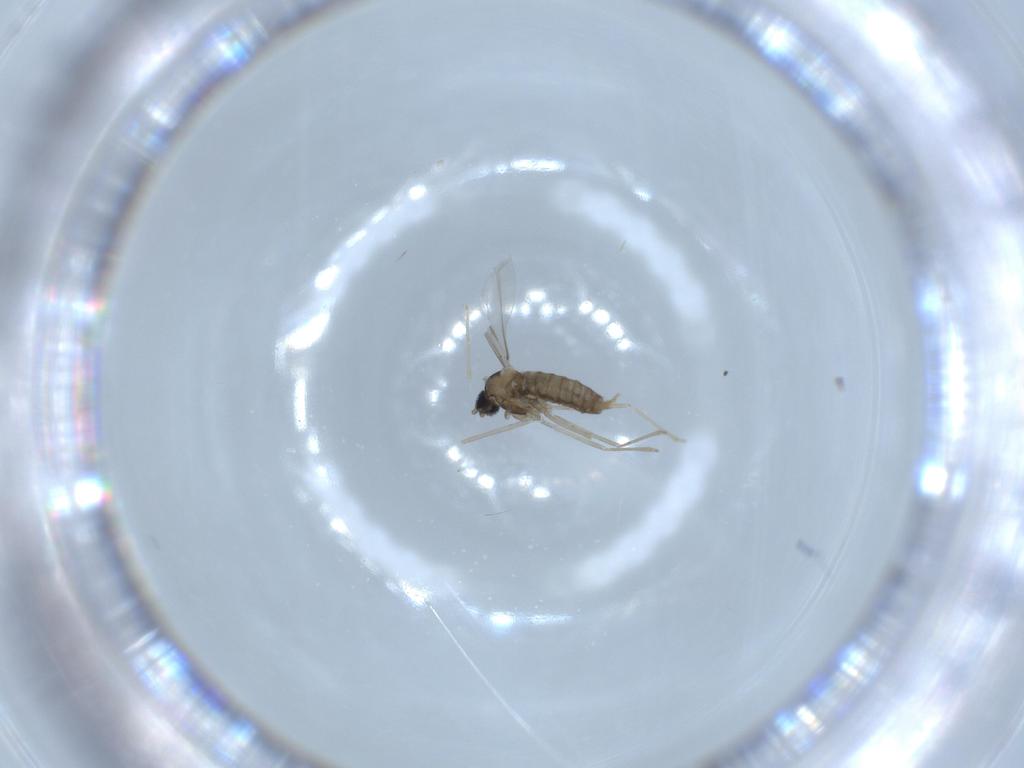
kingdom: Animalia
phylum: Arthropoda
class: Insecta
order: Diptera
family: Cecidomyiidae
